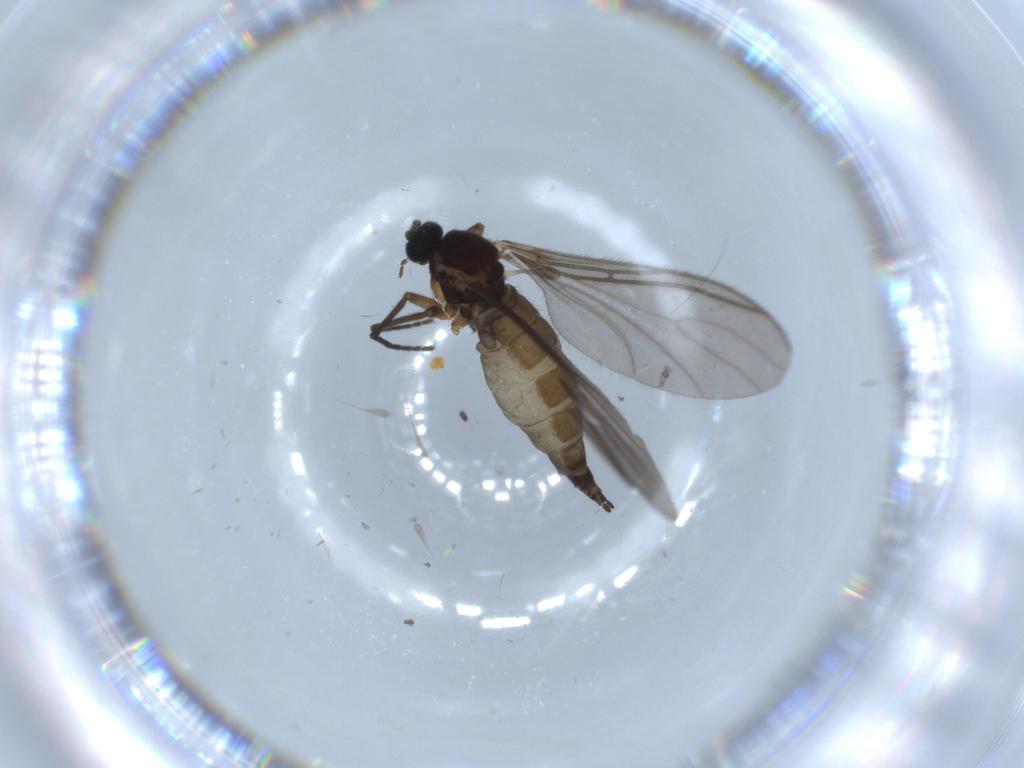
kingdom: Animalia
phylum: Arthropoda
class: Insecta
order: Diptera
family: Sciaridae
